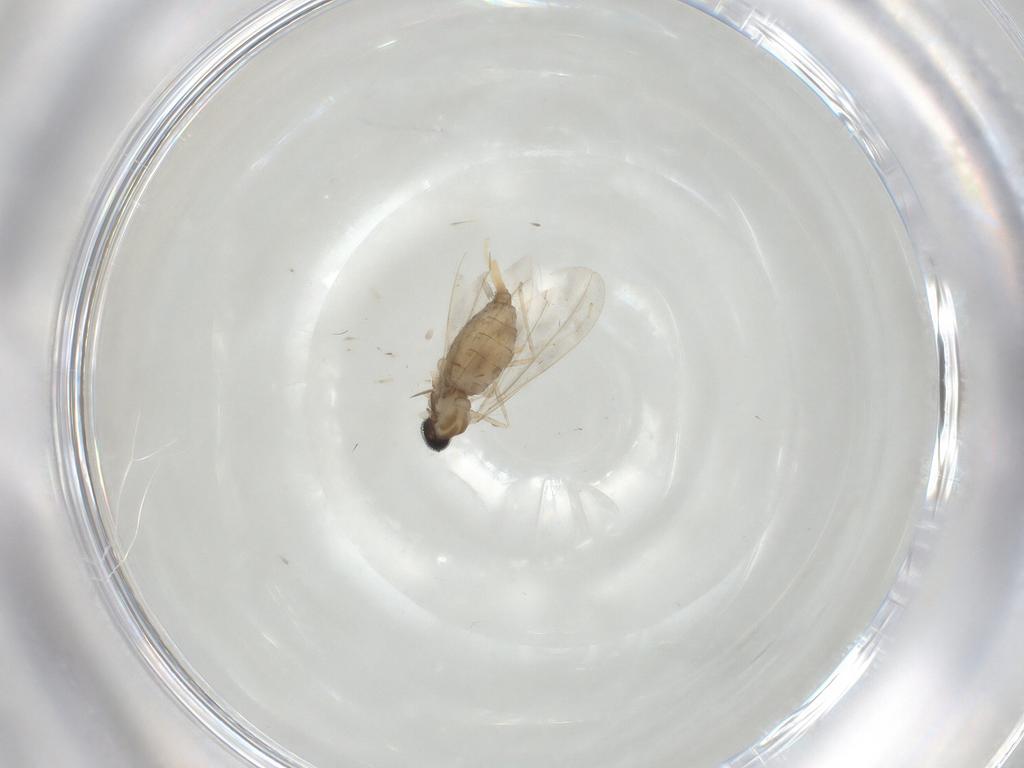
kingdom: Animalia
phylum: Arthropoda
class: Insecta
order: Diptera
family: Cecidomyiidae
